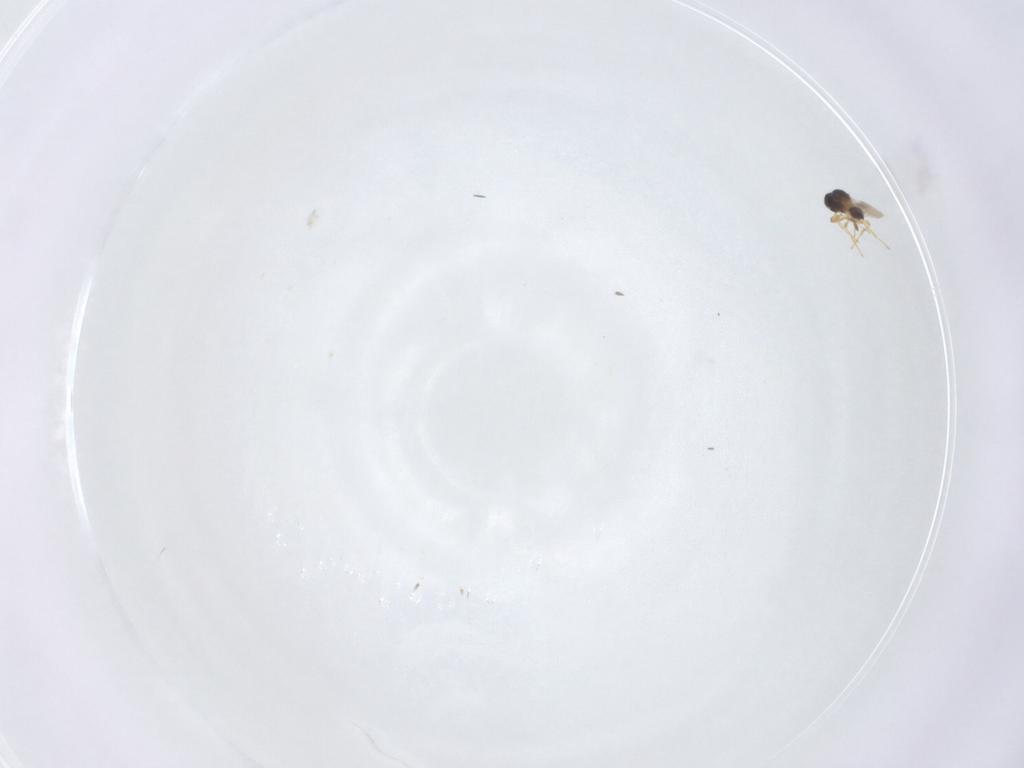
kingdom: Animalia
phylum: Arthropoda
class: Insecta
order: Hymenoptera
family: Platygastridae
